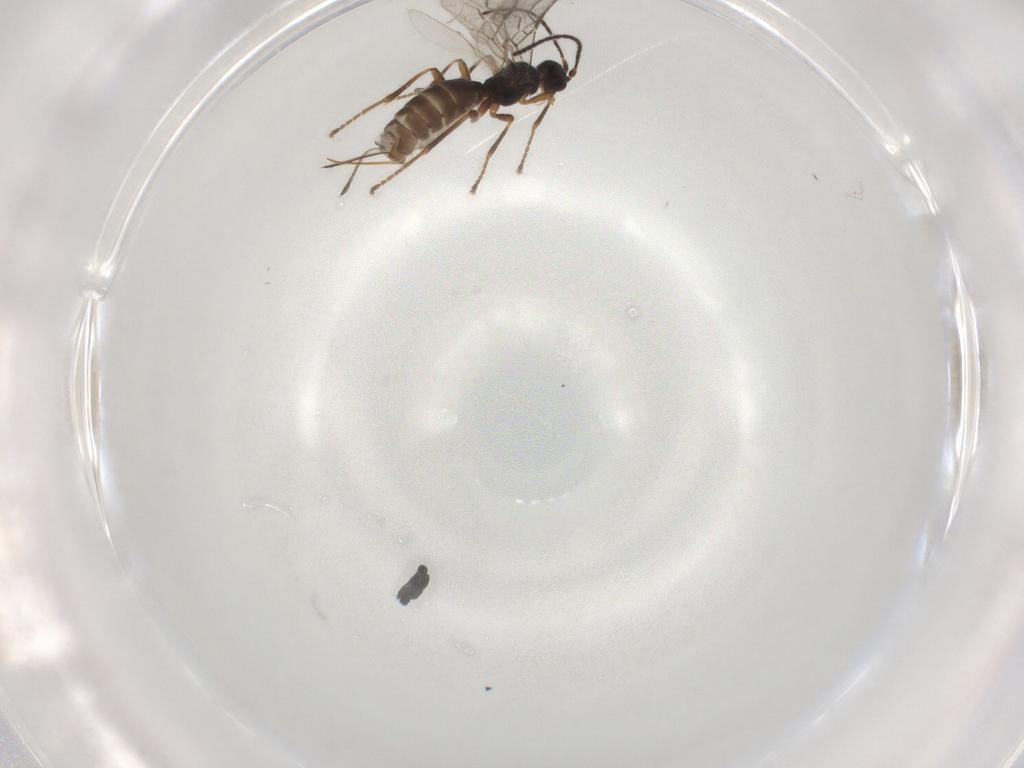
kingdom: Animalia
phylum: Arthropoda
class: Insecta
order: Hymenoptera
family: Braconidae
